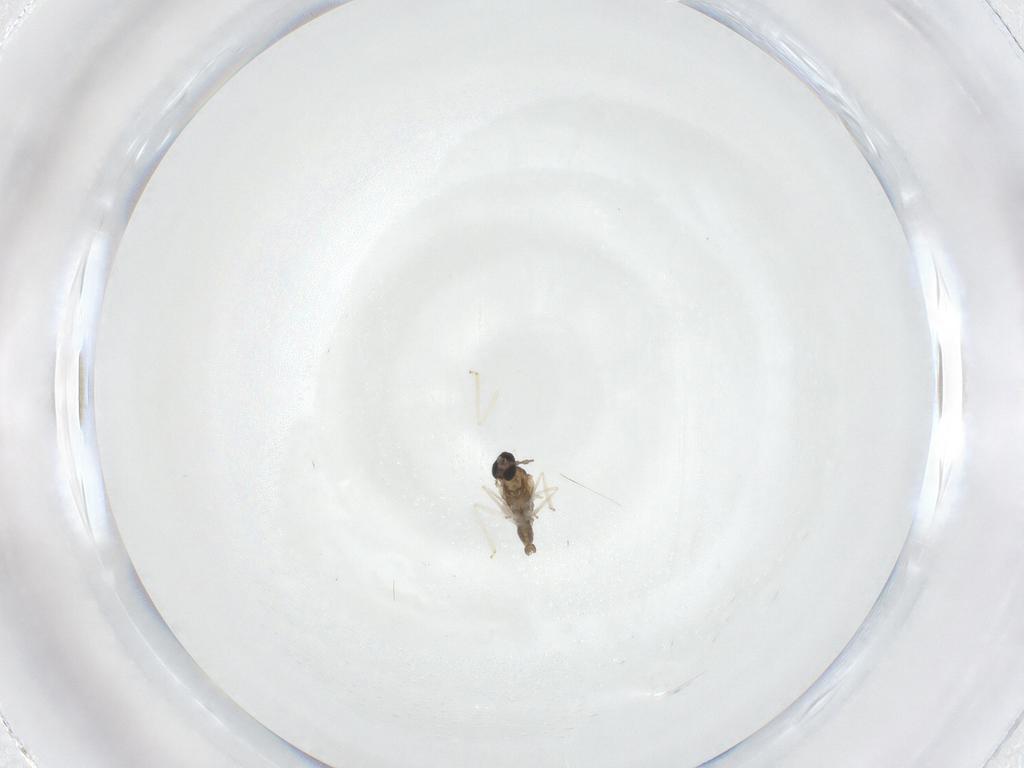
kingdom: Animalia
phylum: Arthropoda
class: Insecta
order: Diptera
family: Cecidomyiidae
